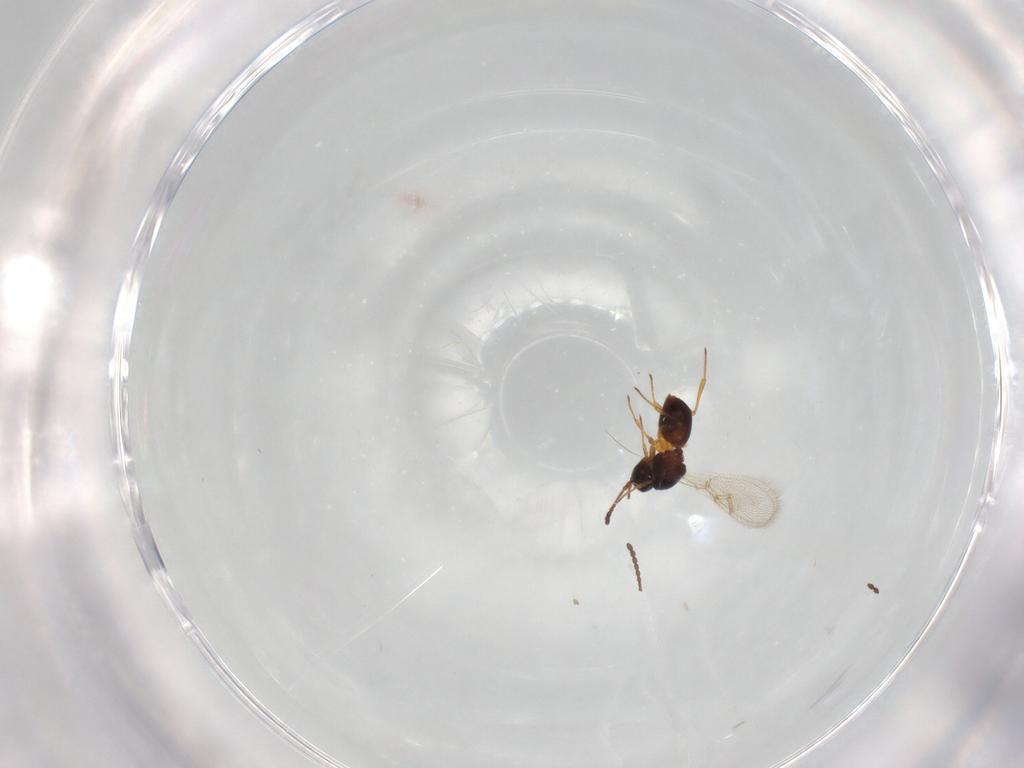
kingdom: Animalia
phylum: Arthropoda
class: Insecta
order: Hymenoptera
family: Figitidae
